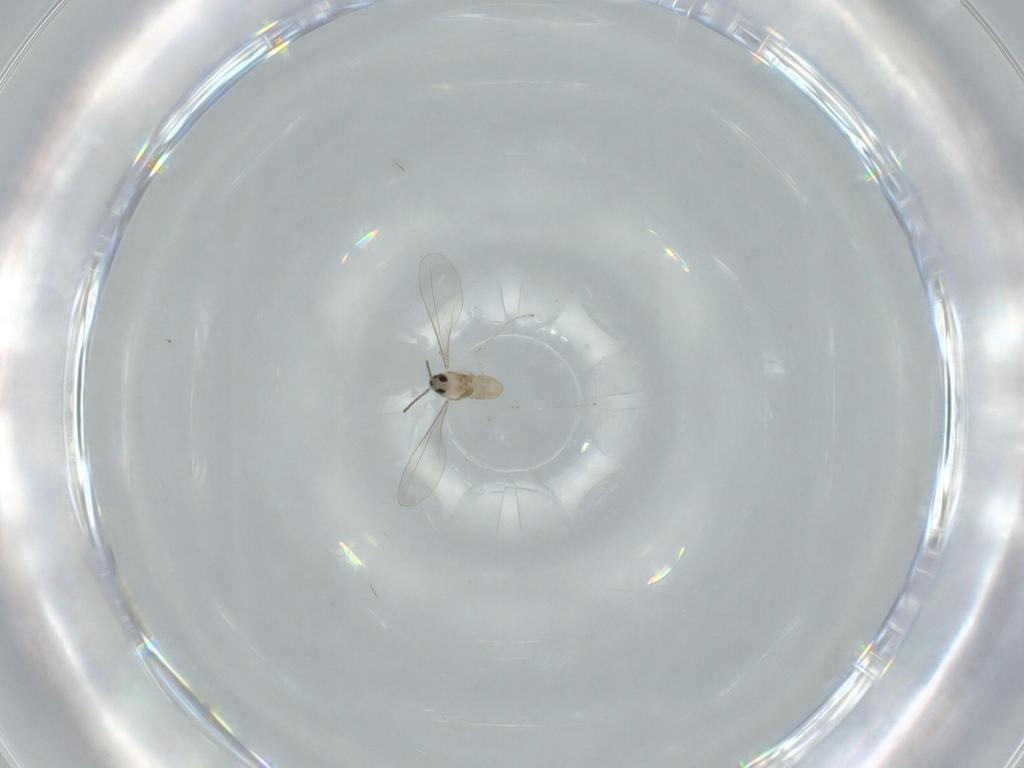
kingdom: Animalia
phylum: Arthropoda
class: Insecta
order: Diptera
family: Cecidomyiidae
